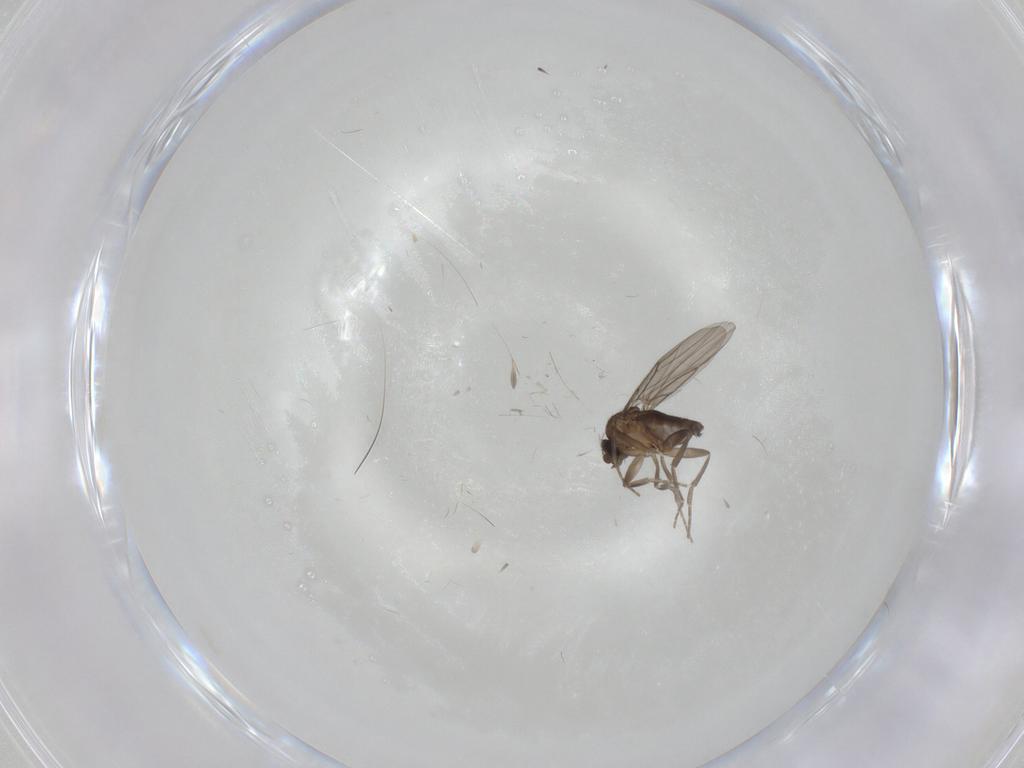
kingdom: Animalia
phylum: Arthropoda
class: Insecta
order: Diptera
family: Phoridae
